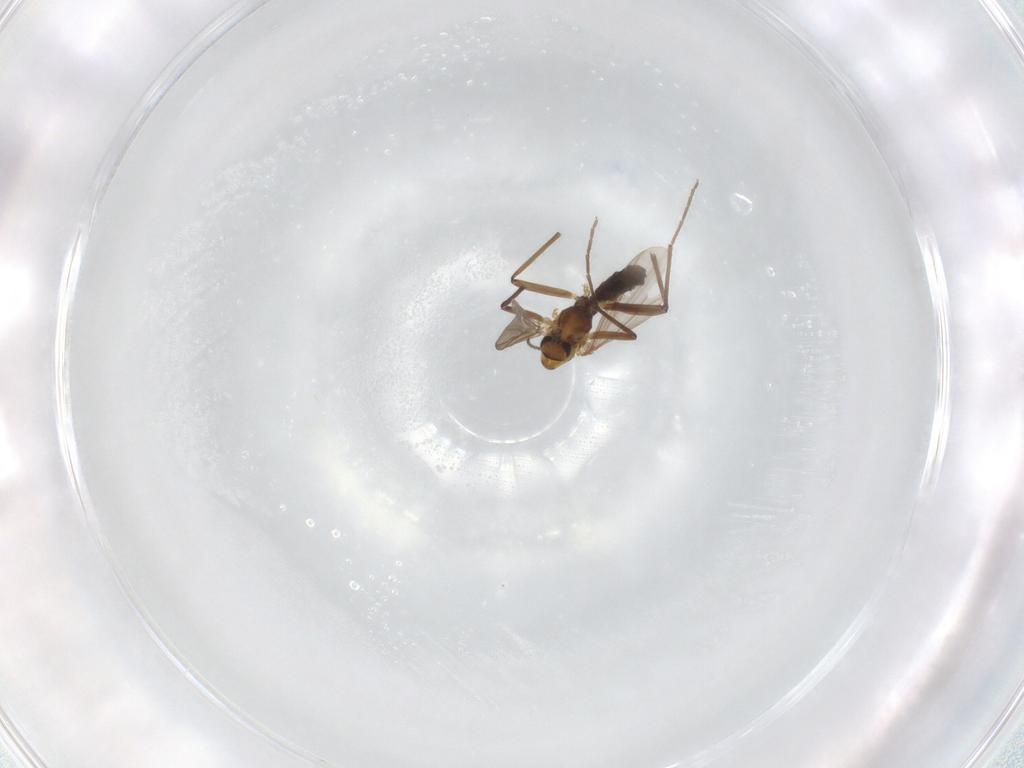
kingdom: Animalia
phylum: Arthropoda
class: Insecta
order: Diptera
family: Chironomidae
